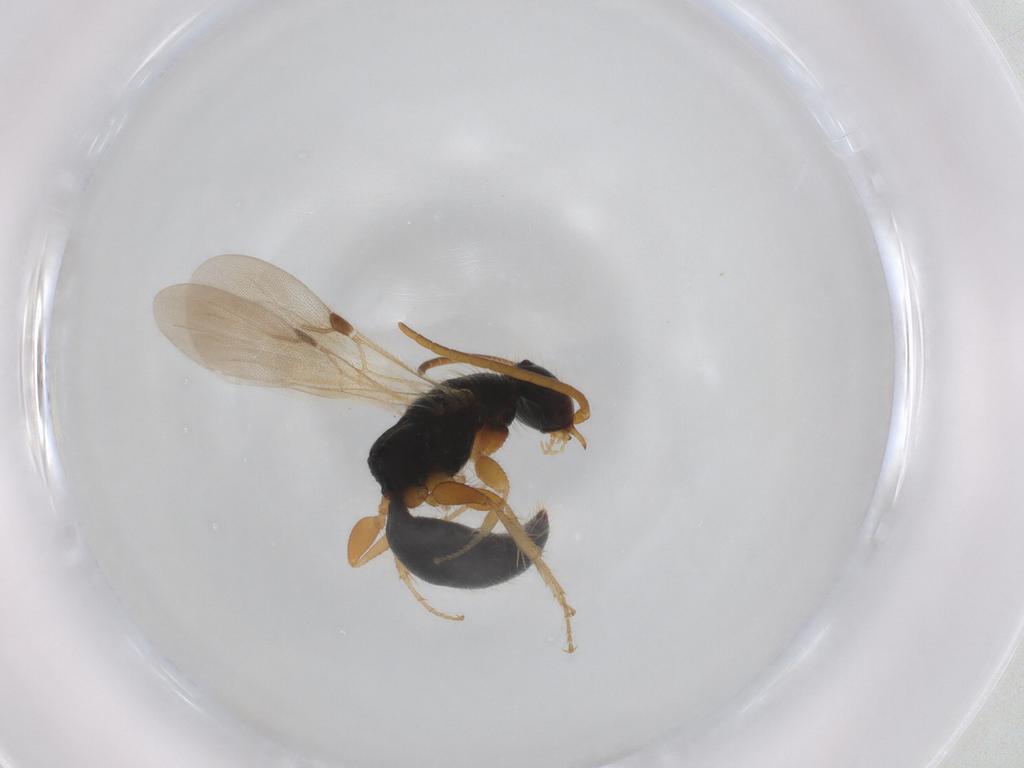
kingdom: Animalia
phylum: Arthropoda
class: Insecta
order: Hymenoptera
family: Bethylidae
